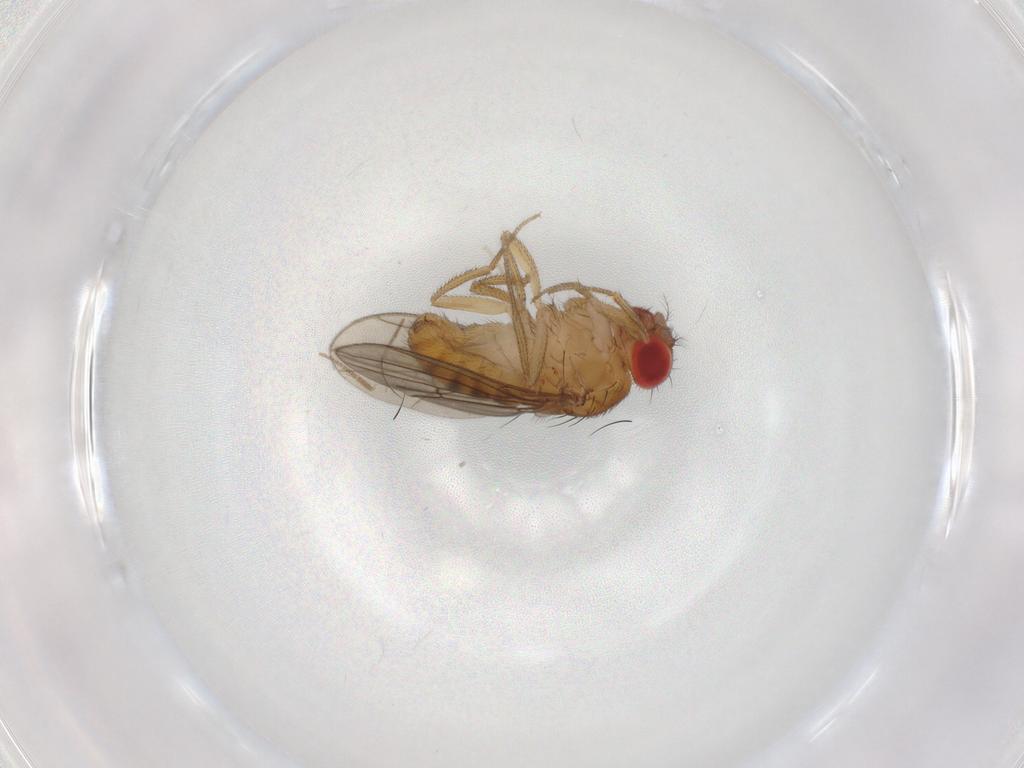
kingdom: Animalia
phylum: Arthropoda
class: Insecta
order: Diptera
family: Drosophilidae
